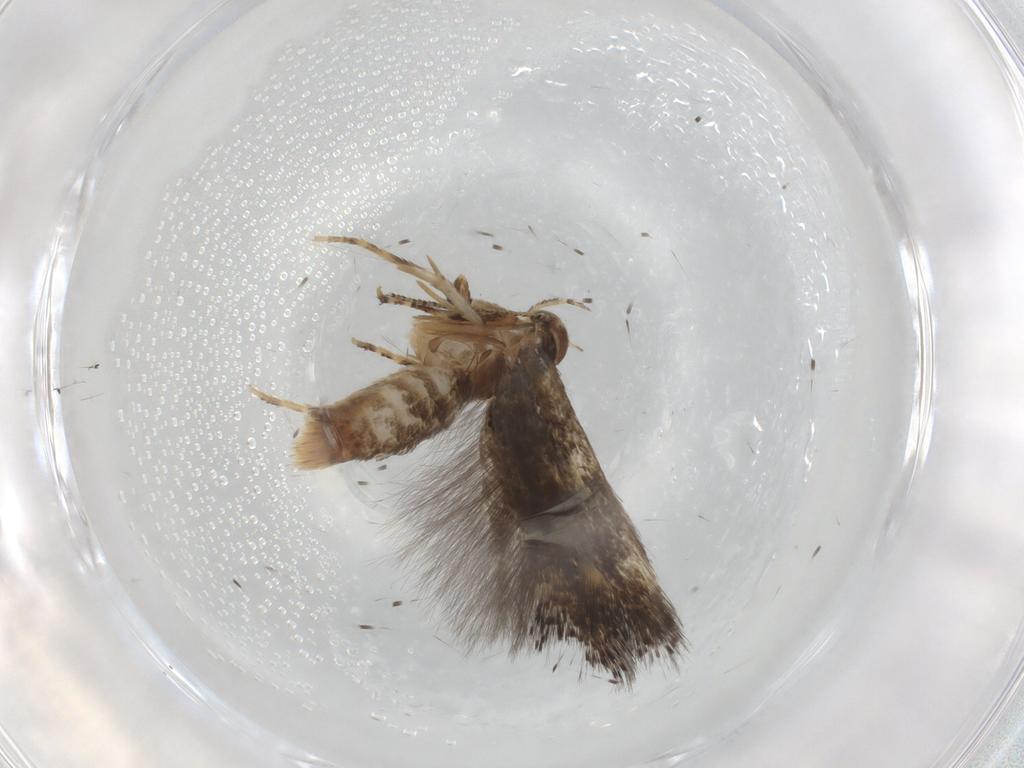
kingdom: Animalia
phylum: Arthropoda
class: Insecta
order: Lepidoptera
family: Elachistidae
